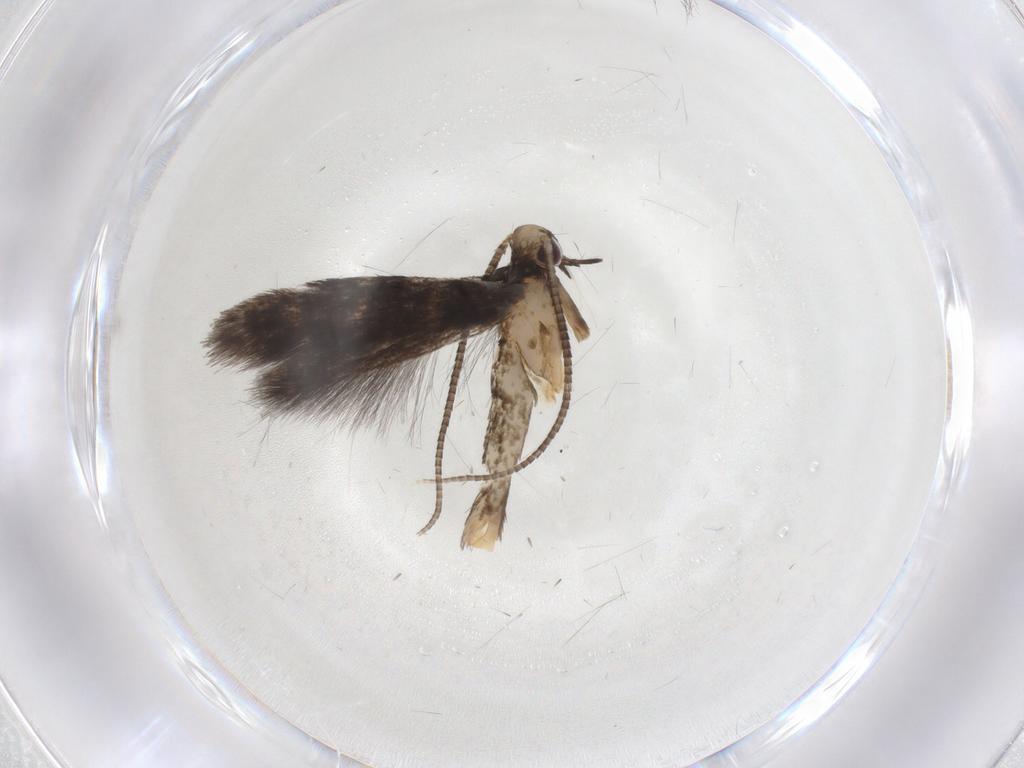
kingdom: Animalia
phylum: Arthropoda
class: Insecta
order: Lepidoptera
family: Gracillariidae
